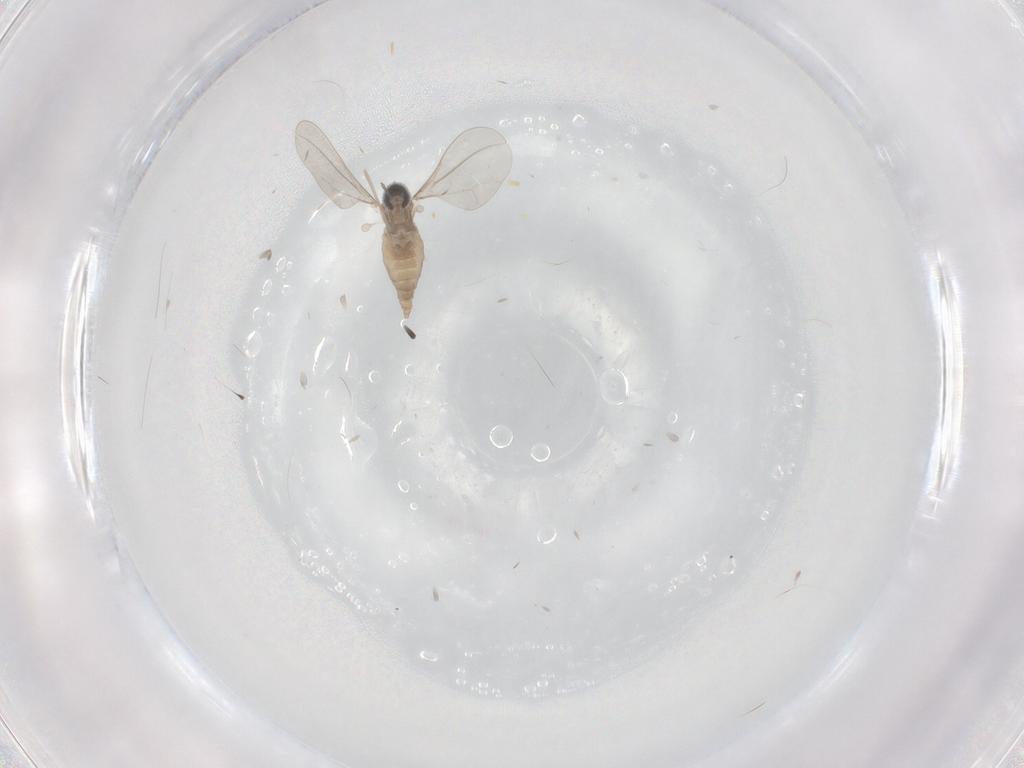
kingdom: Animalia
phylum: Arthropoda
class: Insecta
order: Diptera
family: Cecidomyiidae
